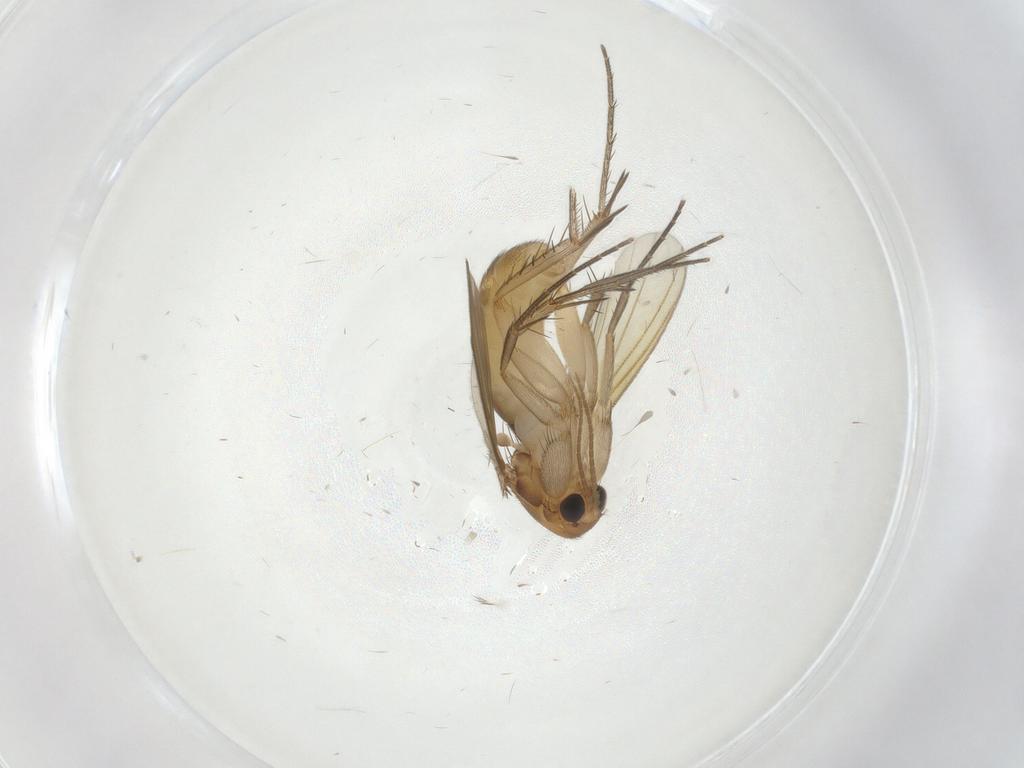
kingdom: Animalia
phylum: Arthropoda
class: Insecta
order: Diptera
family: Mycetophilidae
